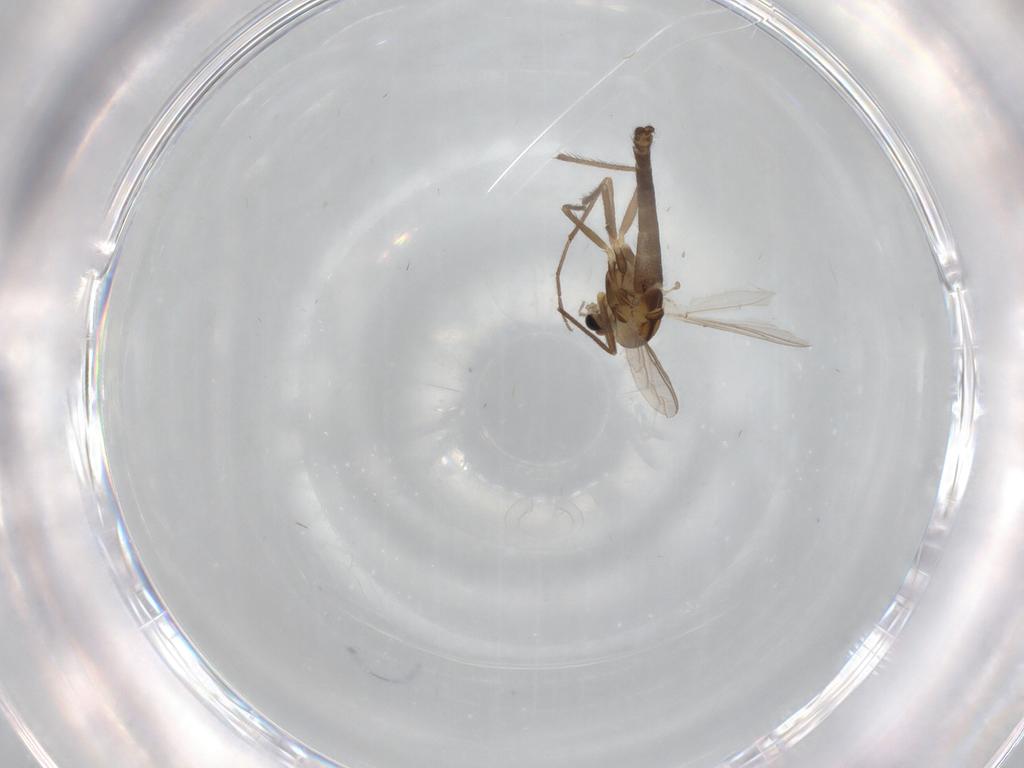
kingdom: Animalia
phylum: Arthropoda
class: Insecta
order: Diptera
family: Chironomidae
